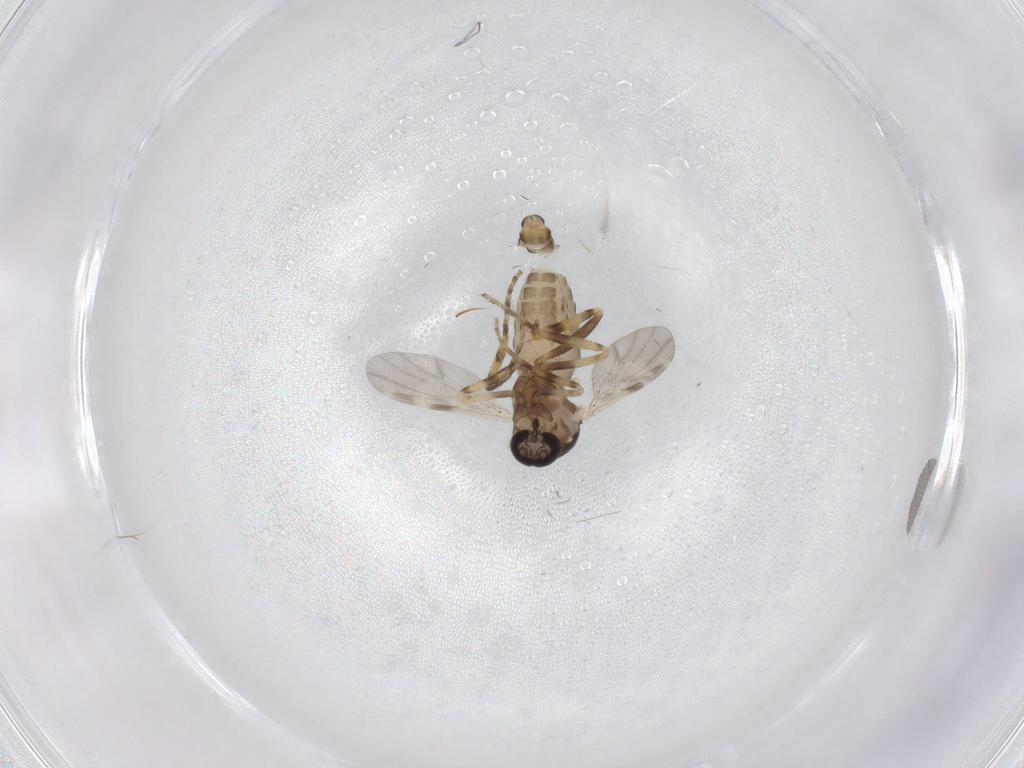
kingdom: Animalia
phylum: Arthropoda
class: Insecta
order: Diptera
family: Ceratopogonidae
